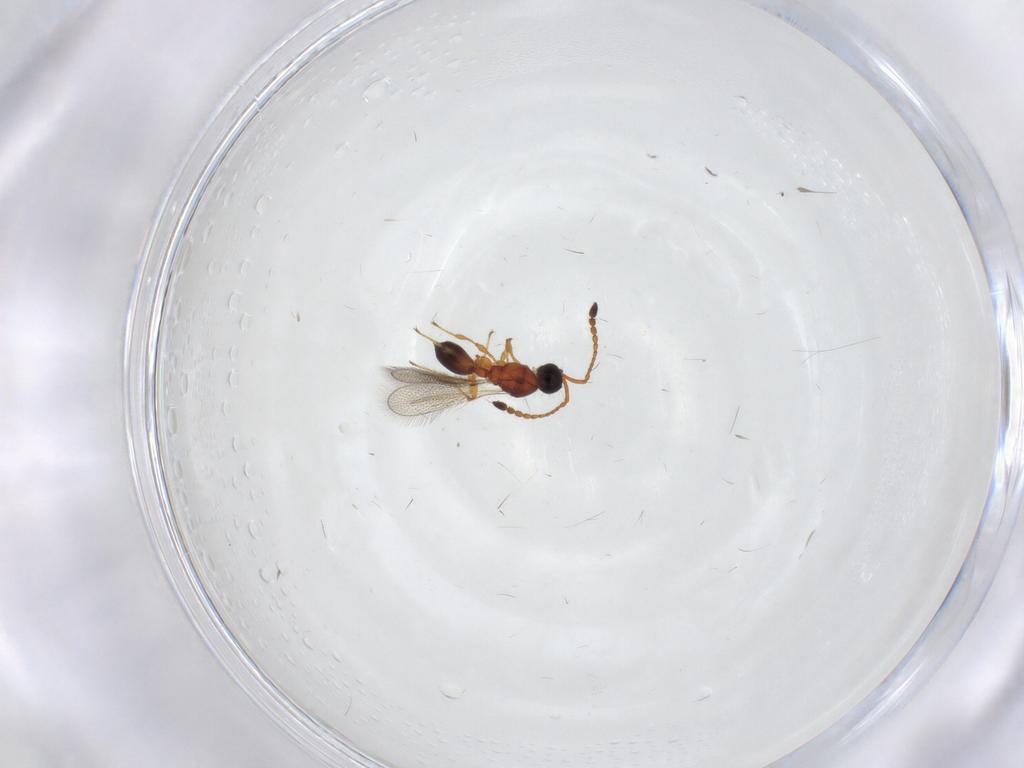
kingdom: Animalia
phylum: Arthropoda
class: Insecta
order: Hymenoptera
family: Diapriidae
